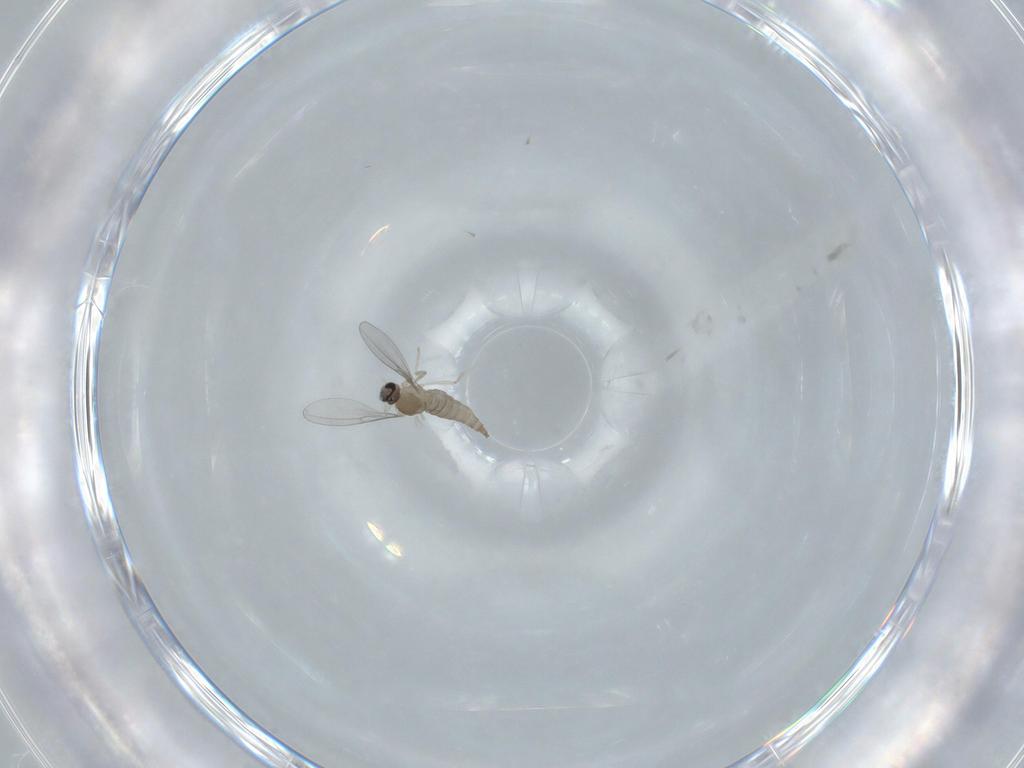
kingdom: Animalia
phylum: Arthropoda
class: Insecta
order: Diptera
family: Cecidomyiidae
